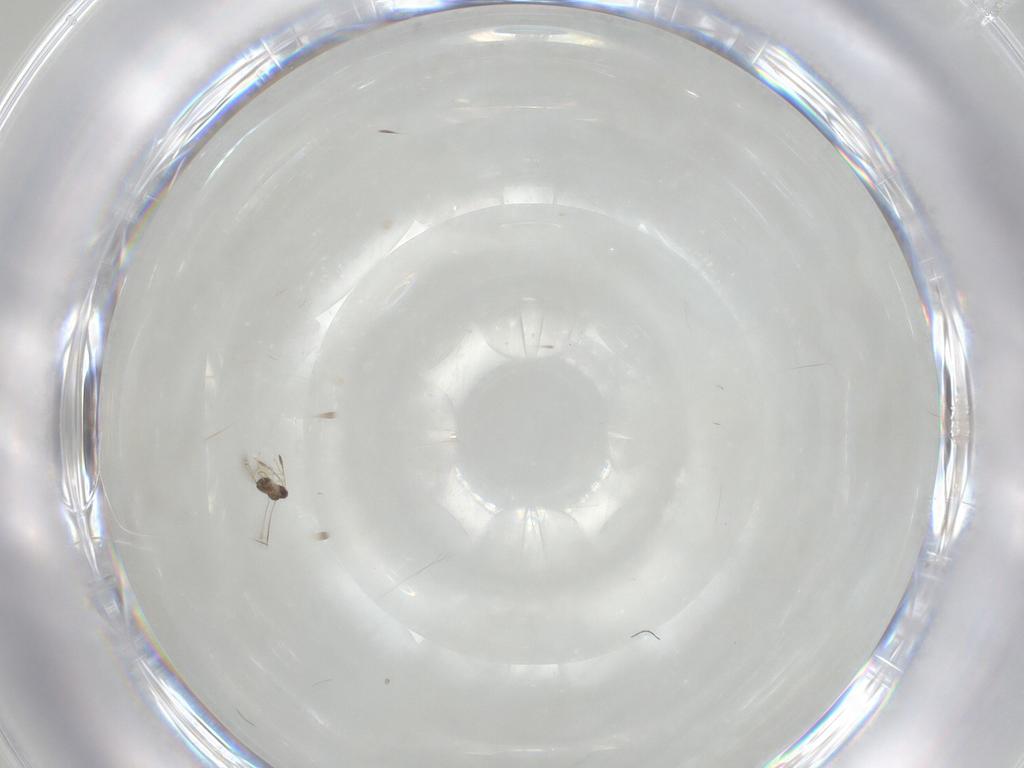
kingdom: Animalia
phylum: Arthropoda
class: Insecta
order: Hymenoptera
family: Mymaridae
